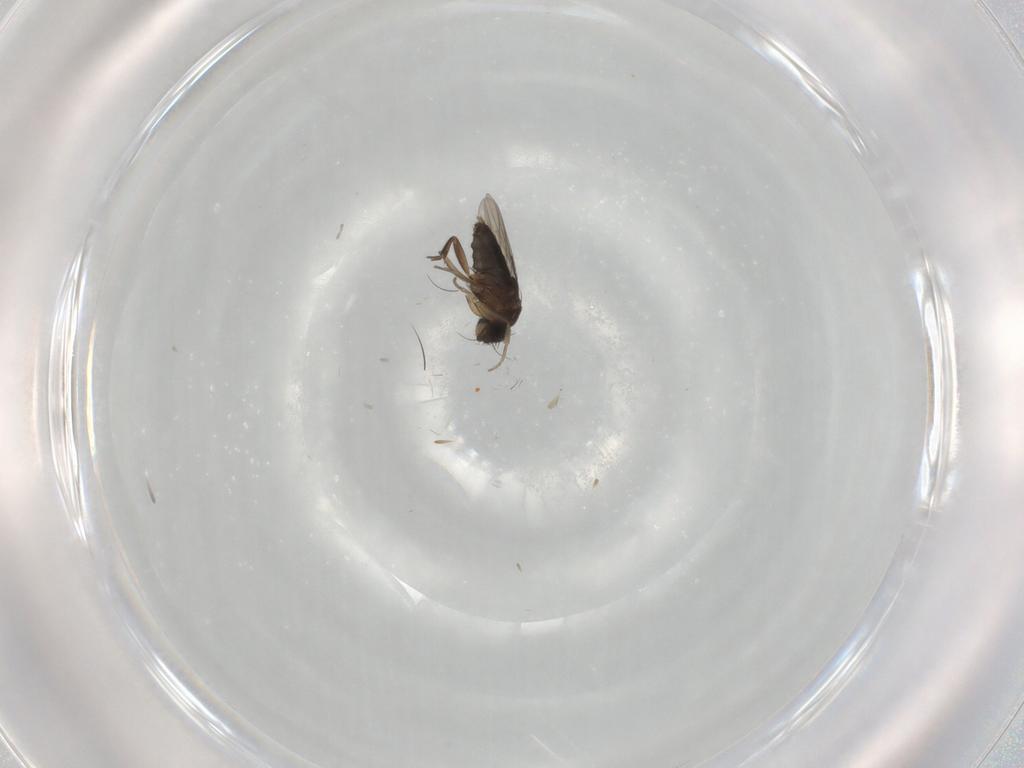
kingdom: Animalia
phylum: Arthropoda
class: Insecta
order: Diptera
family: Phoridae
